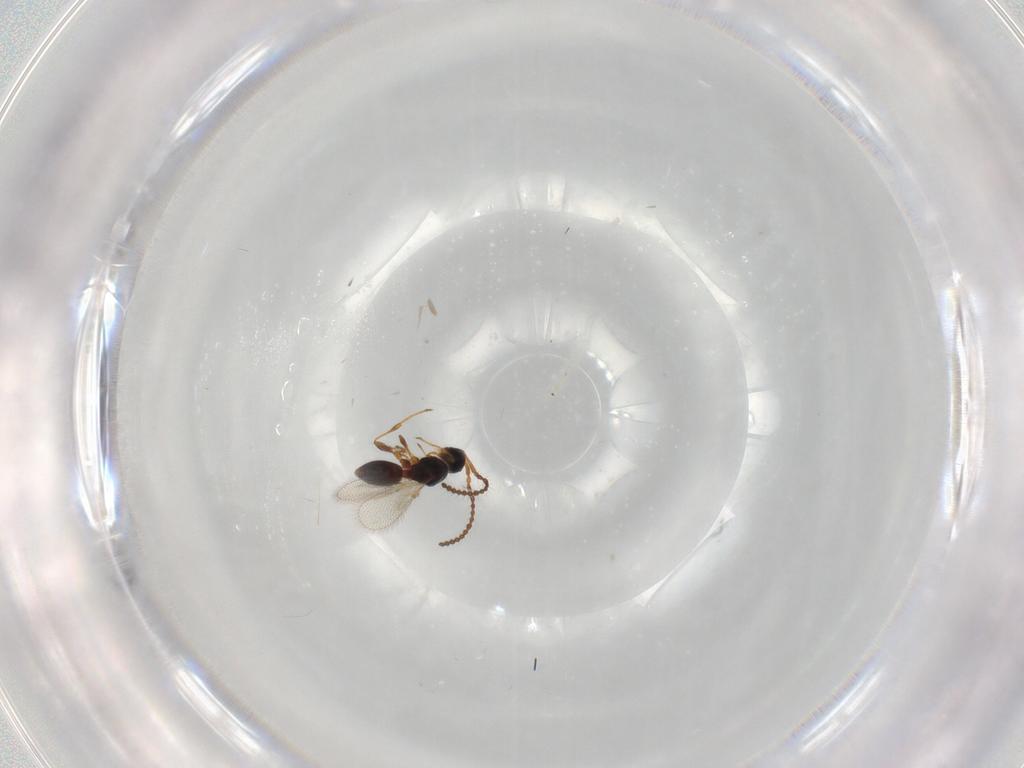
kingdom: Animalia
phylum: Arthropoda
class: Insecta
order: Hymenoptera
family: Diapriidae
